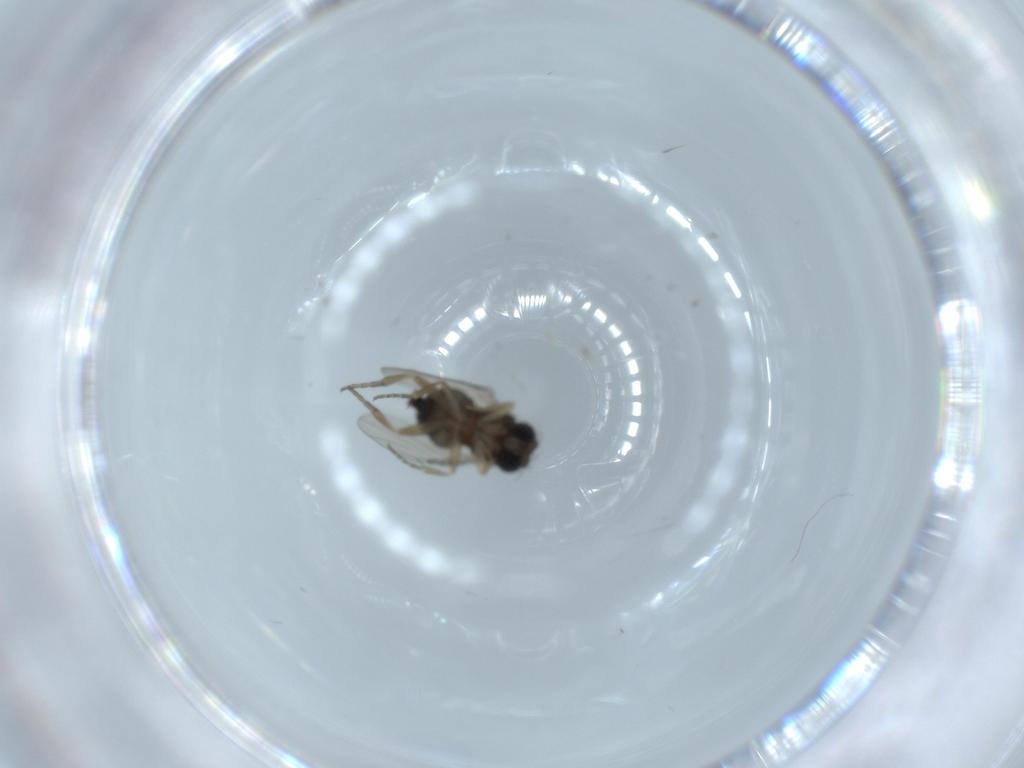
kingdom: Animalia
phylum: Arthropoda
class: Insecta
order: Diptera
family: Phoridae
